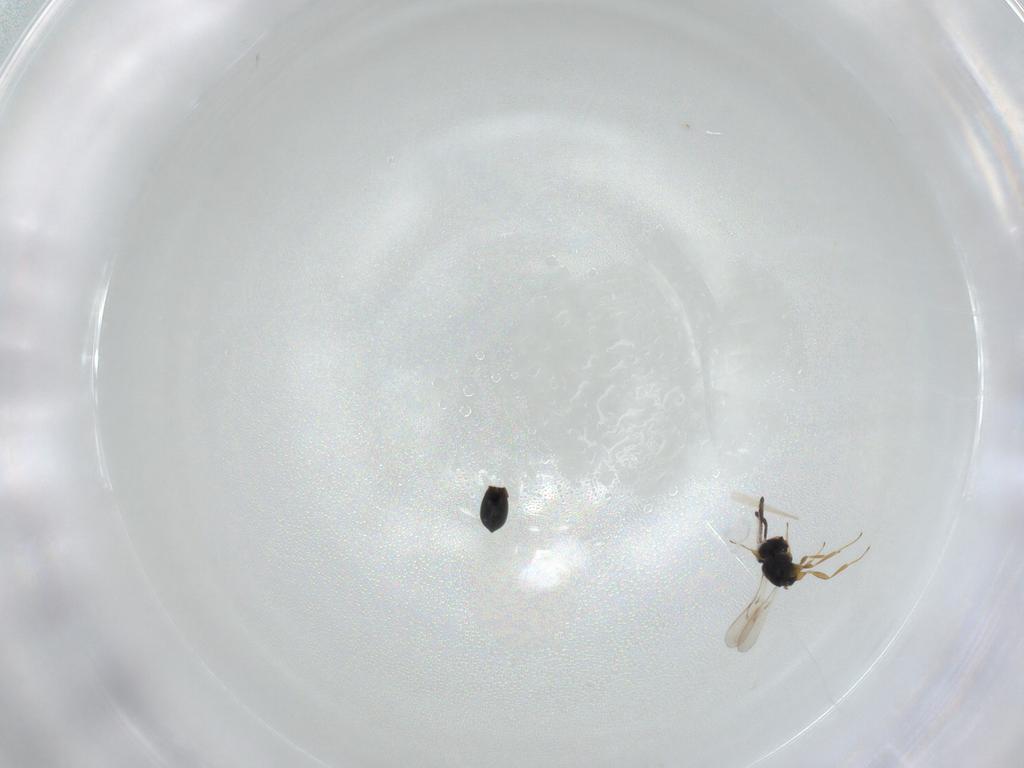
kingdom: Animalia
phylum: Arthropoda
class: Insecta
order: Hymenoptera
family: Scelionidae
